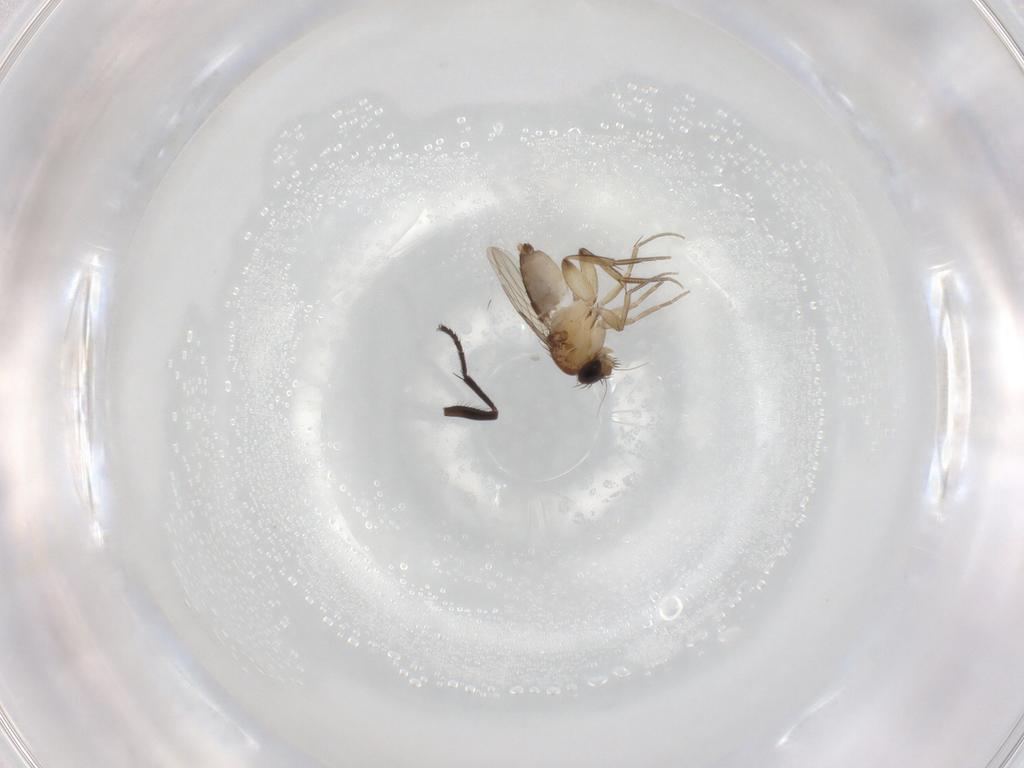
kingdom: Animalia
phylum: Arthropoda
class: Insecta
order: Diptera
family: Phoridae
